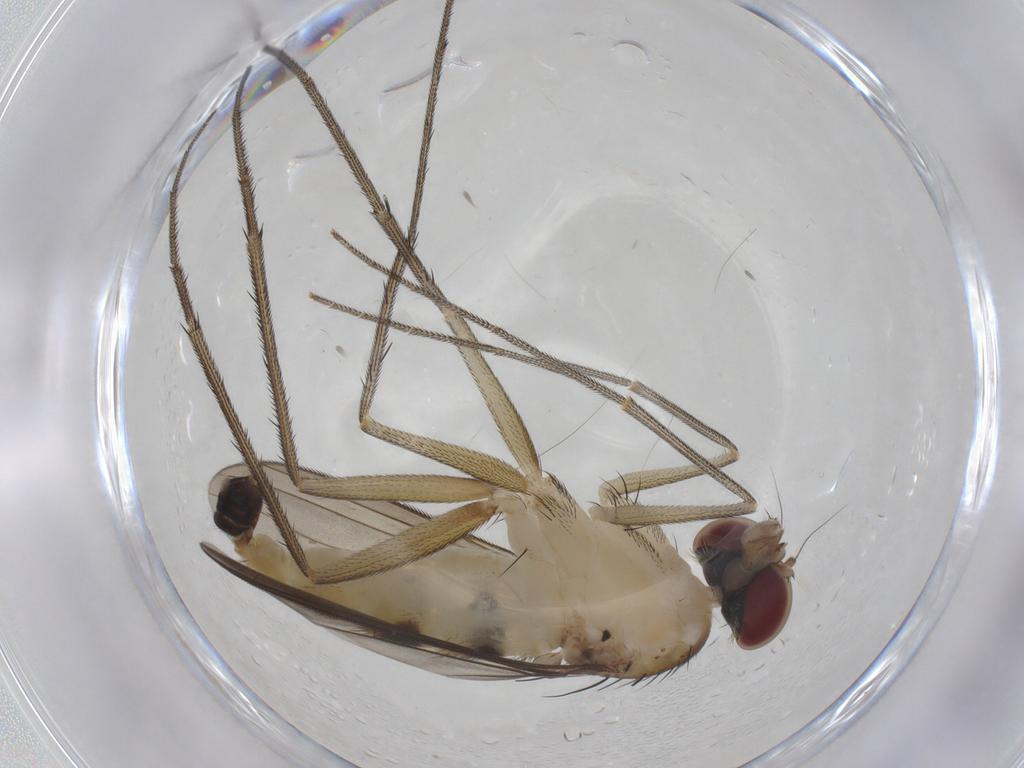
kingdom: Animalia
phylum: Arthropoda
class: Insecta
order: Diptera
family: Dolichopodidae
